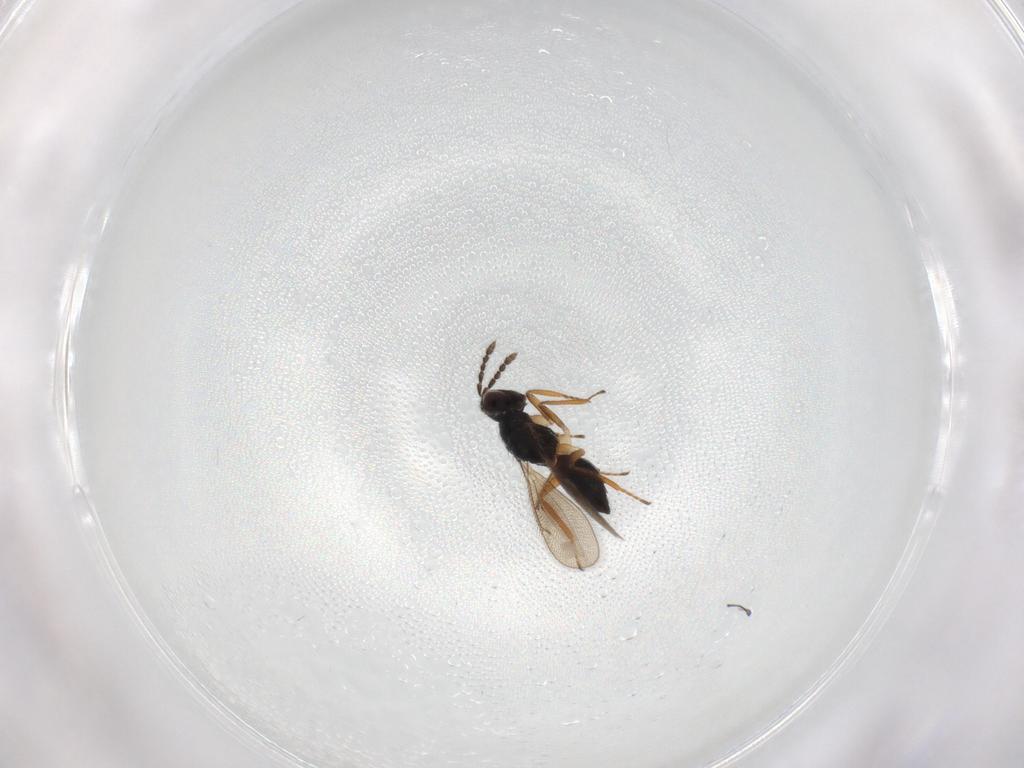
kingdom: Animalia
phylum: Arthropoda
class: Insecta
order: Hymenoptera
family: Eulophidae
